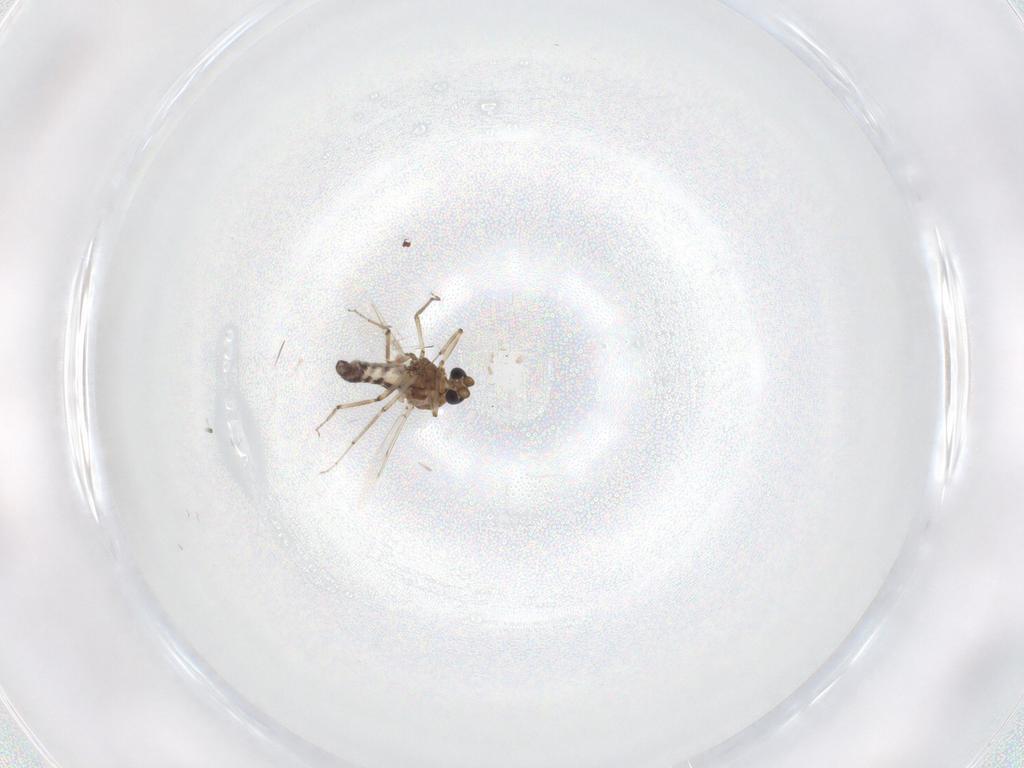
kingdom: Animalia
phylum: Arthropoda
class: Insecta
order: Diptera
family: Ceratopogonidae
